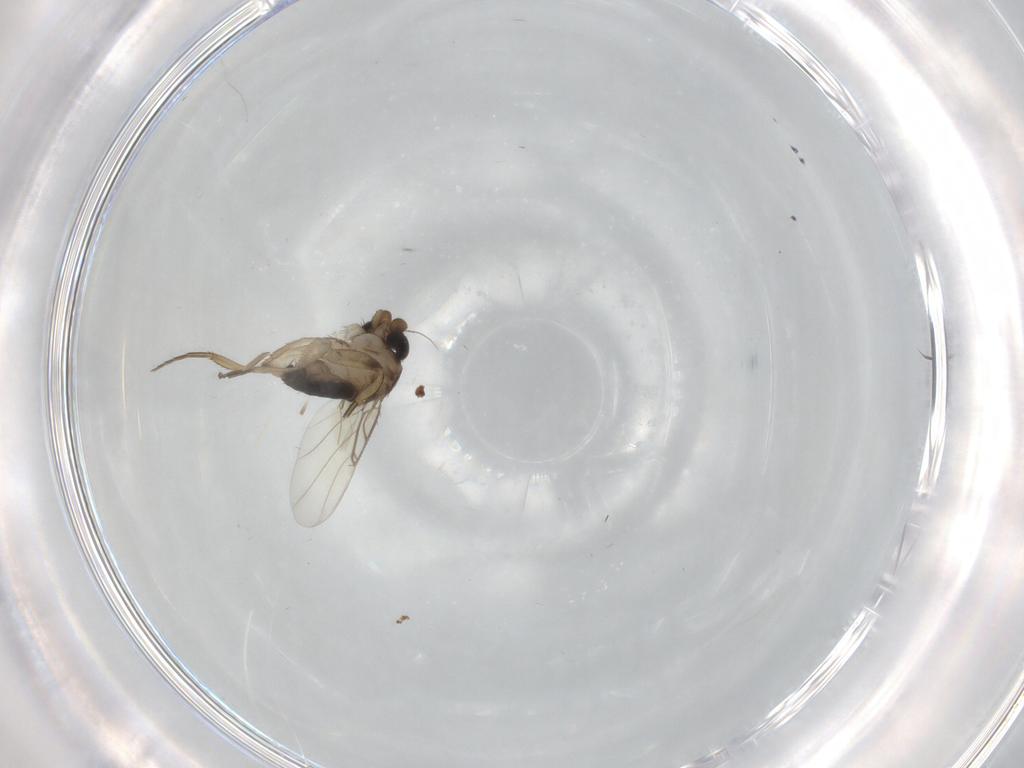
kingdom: Animalia
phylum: Arthropoda
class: Insecta
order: Diptera
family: Phoridae
